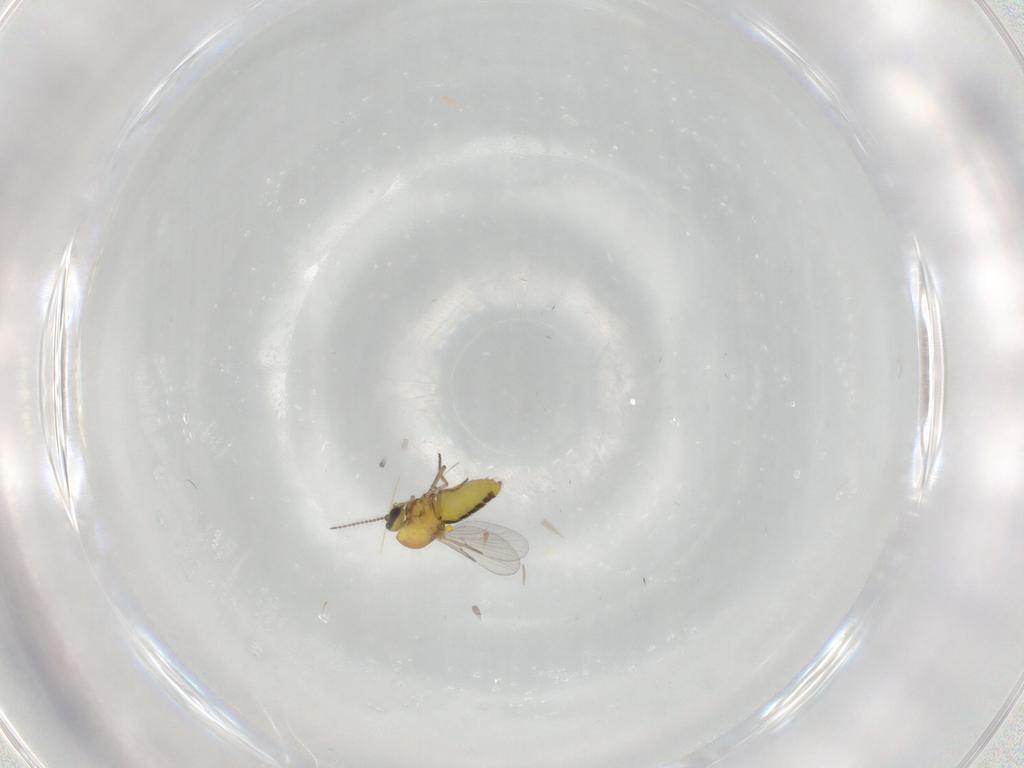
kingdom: Animalia
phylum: Arthropoda
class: Insecta
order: Diptera
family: Ceratopogonidae
